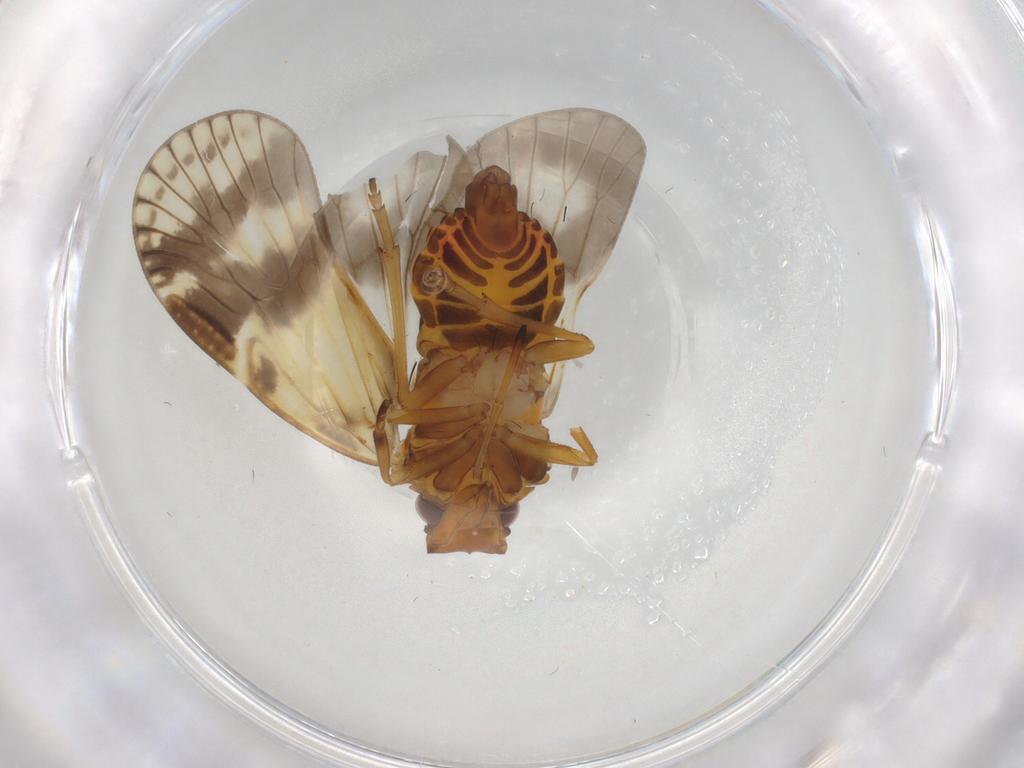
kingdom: Animalia
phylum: Arthropoda
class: Insecta
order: Hemiptera
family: Cixiidae
